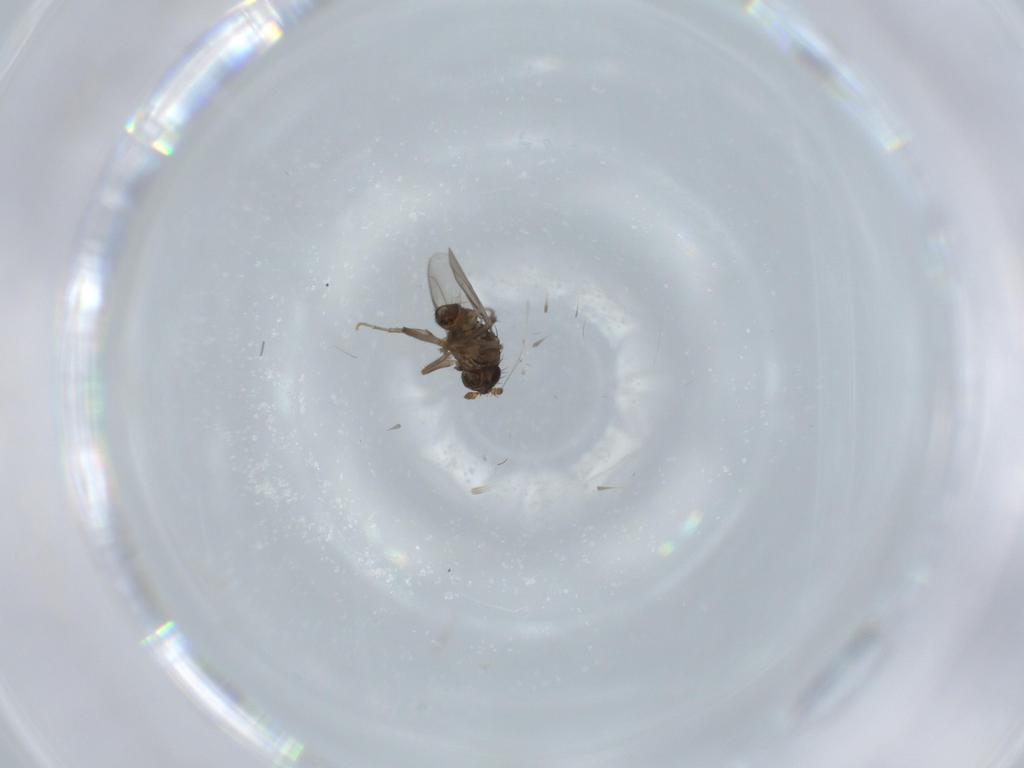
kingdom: Animalia
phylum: Arthropoda
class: Insecta
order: Diptera
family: Sphaeroceridae
